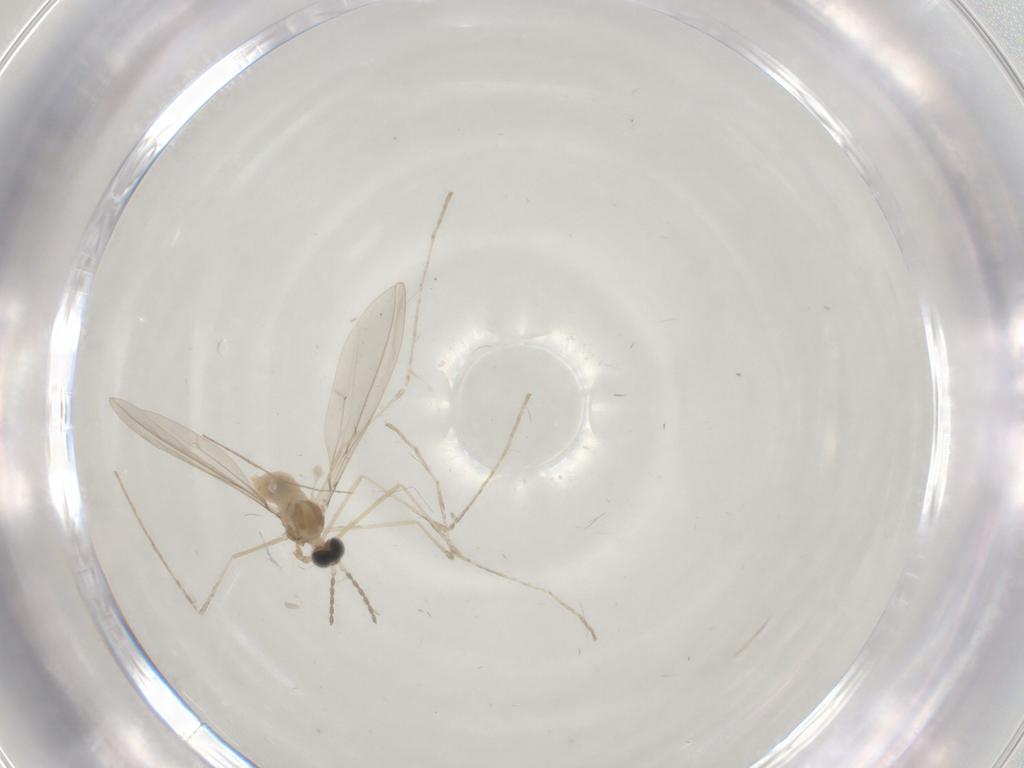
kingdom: Animalia
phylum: Arthropoda
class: Insecta
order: Diptera
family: Cecidomyiidae
